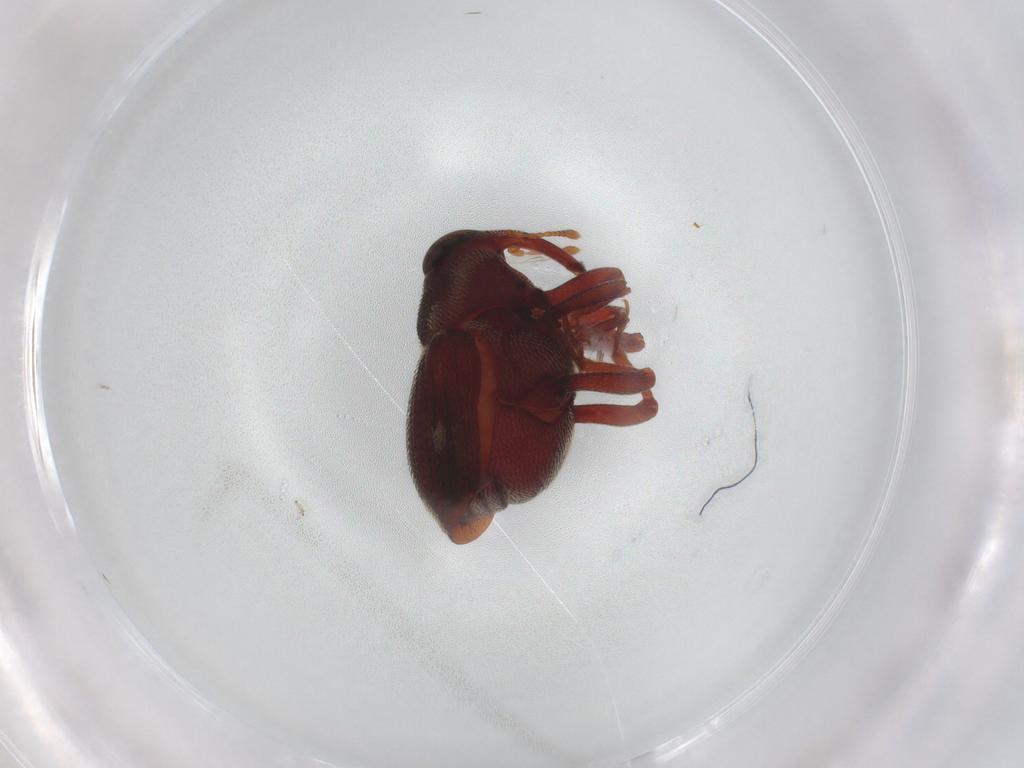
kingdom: Animalia
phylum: Arthropoda
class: Insecta
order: Coleoptera
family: Curculionidae
